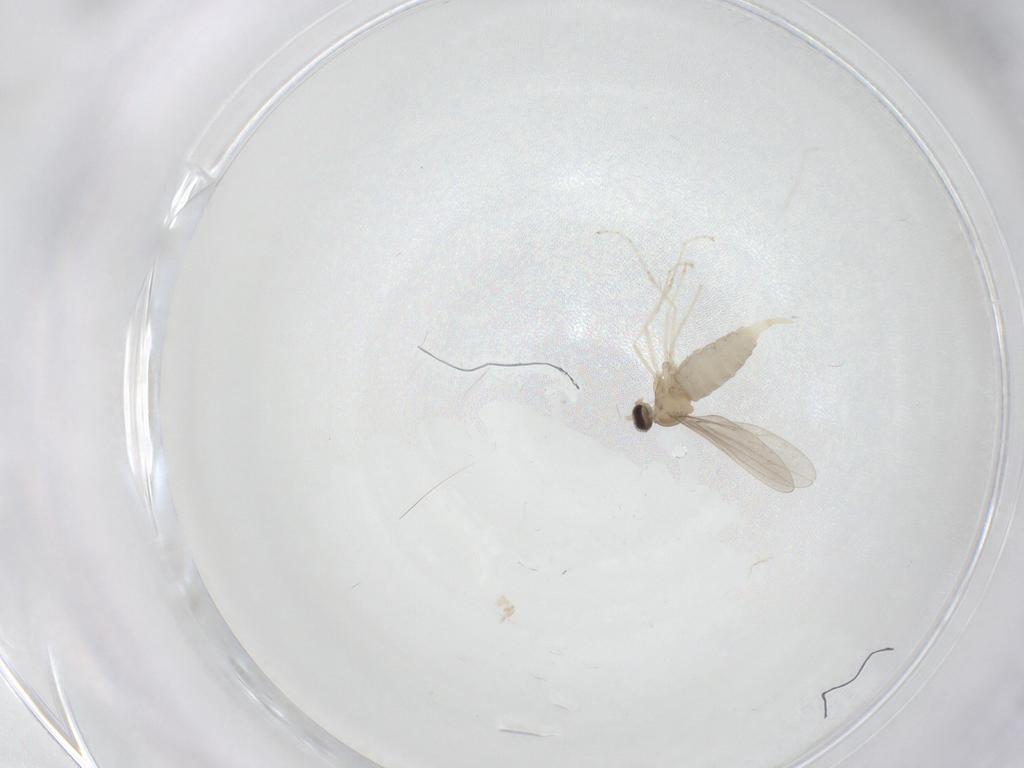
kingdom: Animalia
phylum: Arthropoda
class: Insecta
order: Diptera
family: Cecidomyiidae
